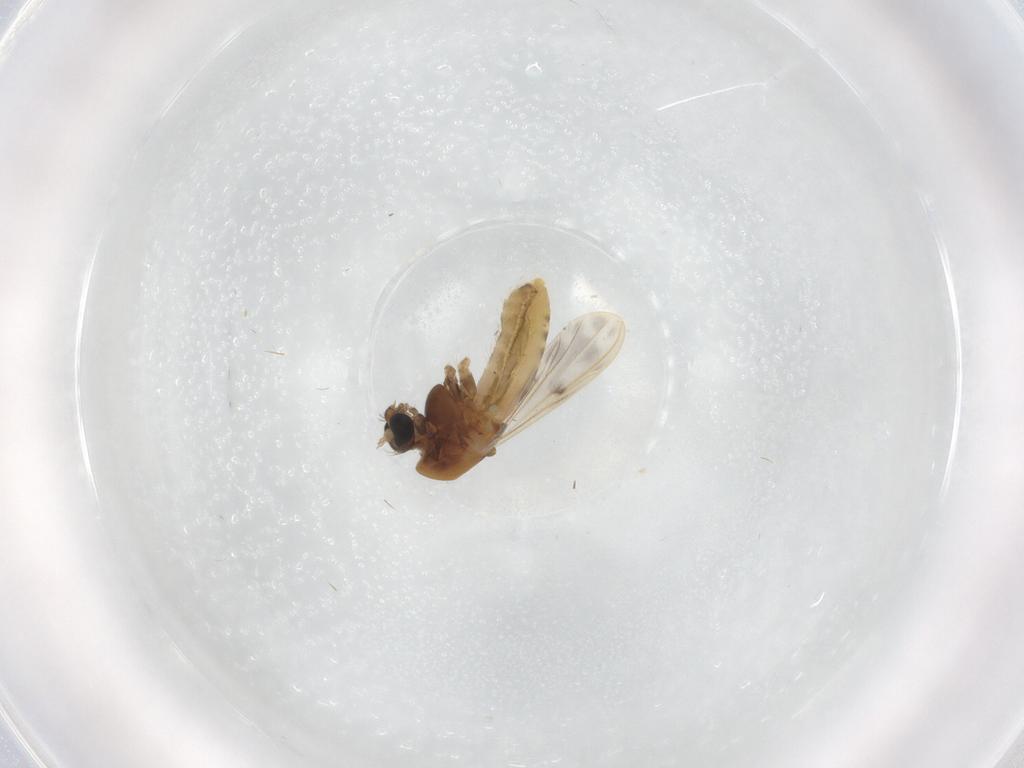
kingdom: Animalia
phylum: Arthropoda
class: Insecta
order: Diptera
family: Chironomidae
